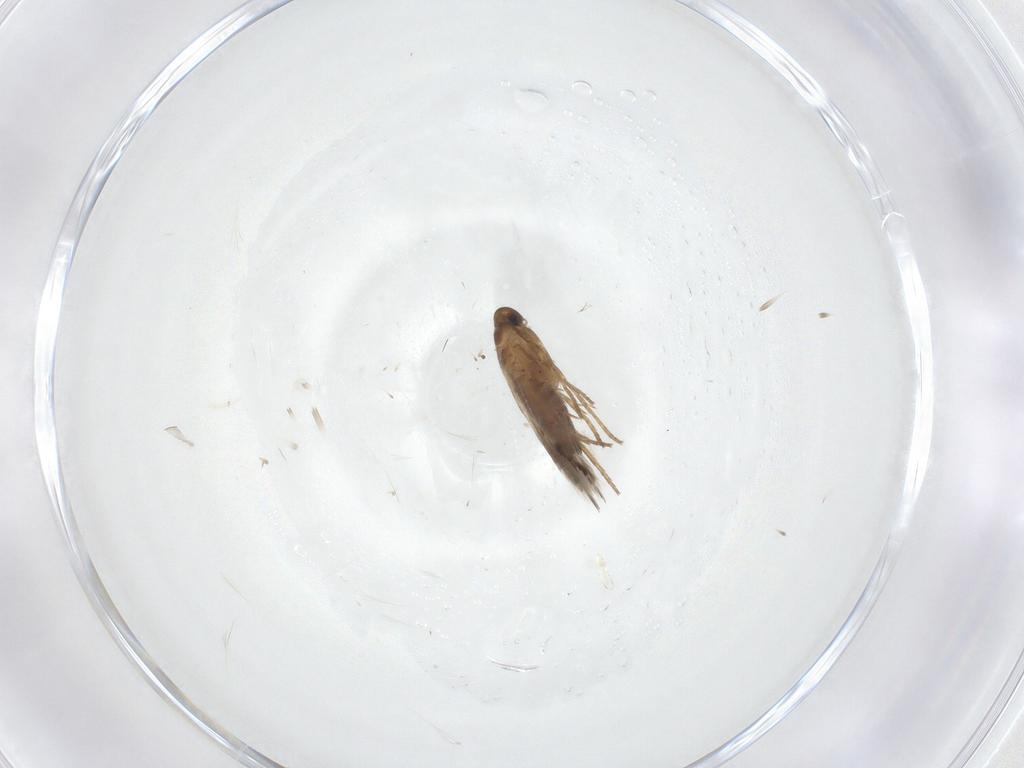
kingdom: Animalia
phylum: Arthropoda
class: Insecta
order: Lepidoptera
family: Heliozelidae
